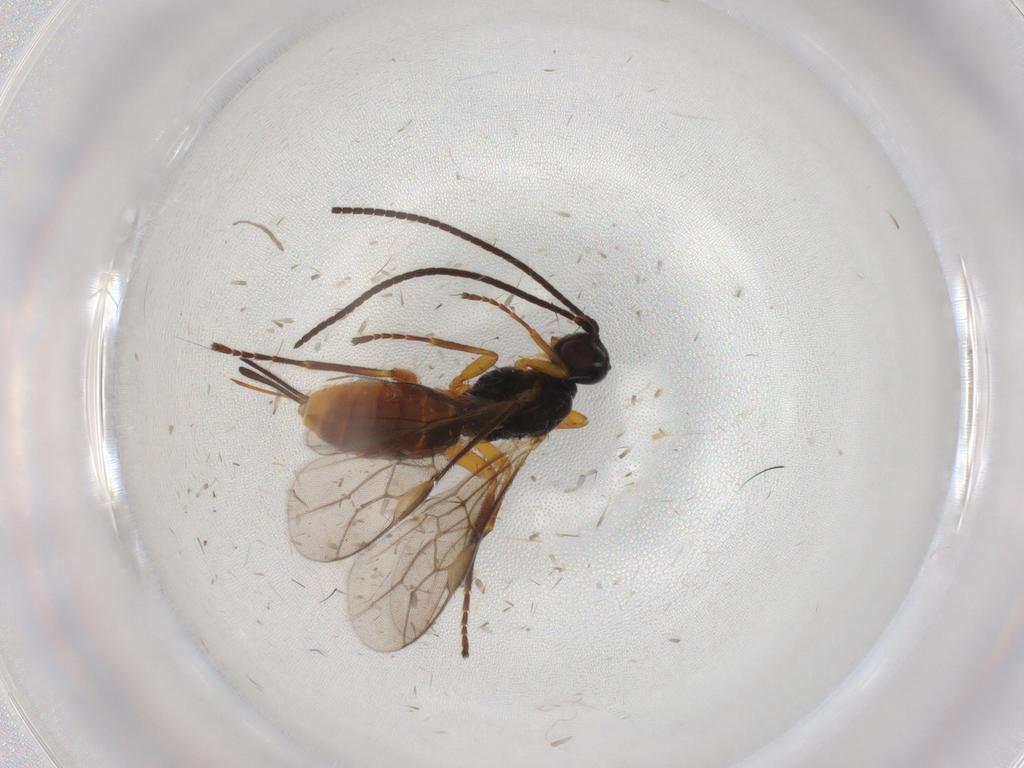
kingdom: Animalia
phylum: Arthropoda
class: Insecta
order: Hymenoptera
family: Braconidae
